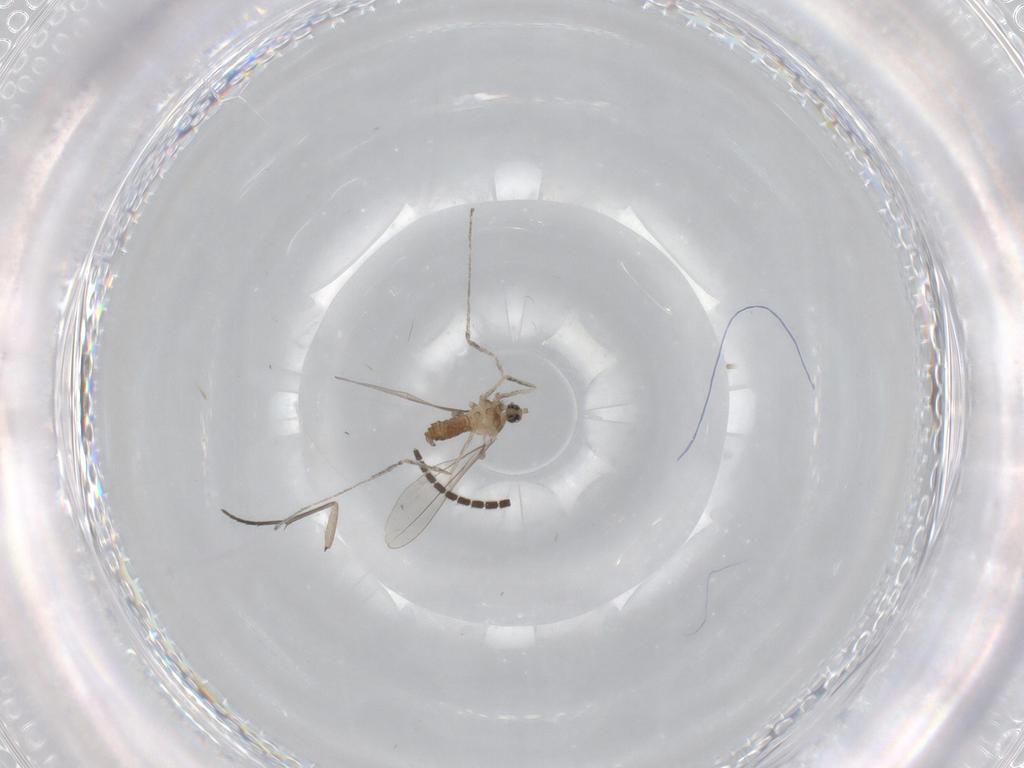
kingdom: Animalia
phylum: Arthropoda
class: Insecta
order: Diptera
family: Cecidomyiidae
